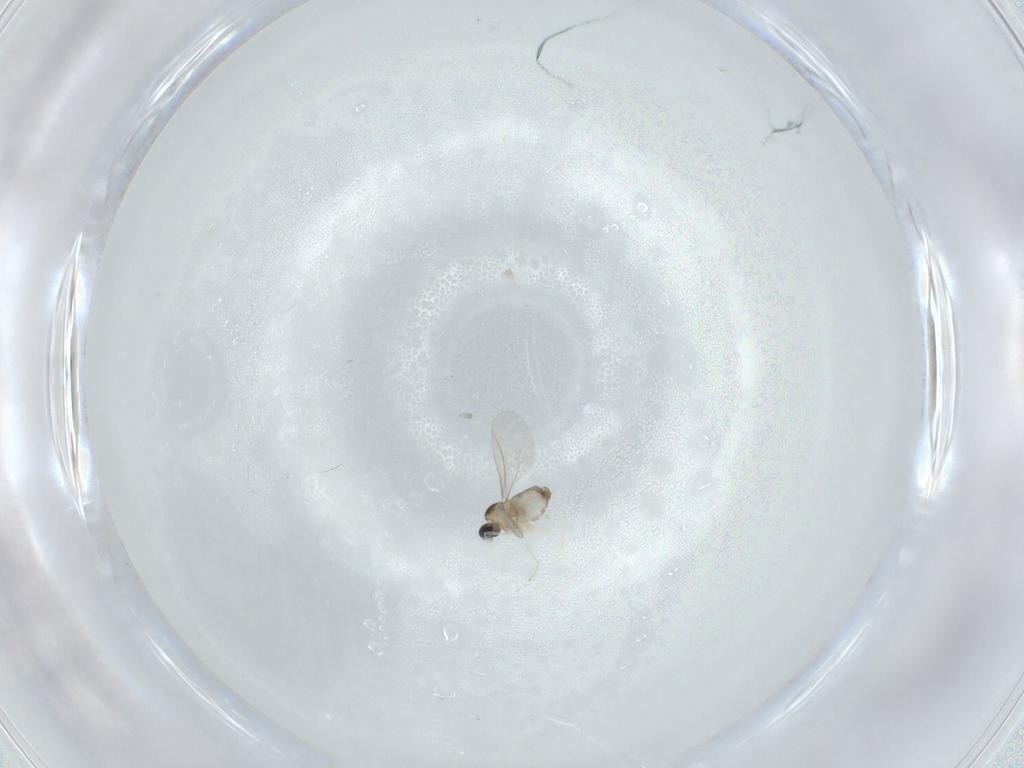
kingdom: Animalia
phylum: Arthropoda
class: Insecta
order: Diptera
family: Cecidomyiidae
